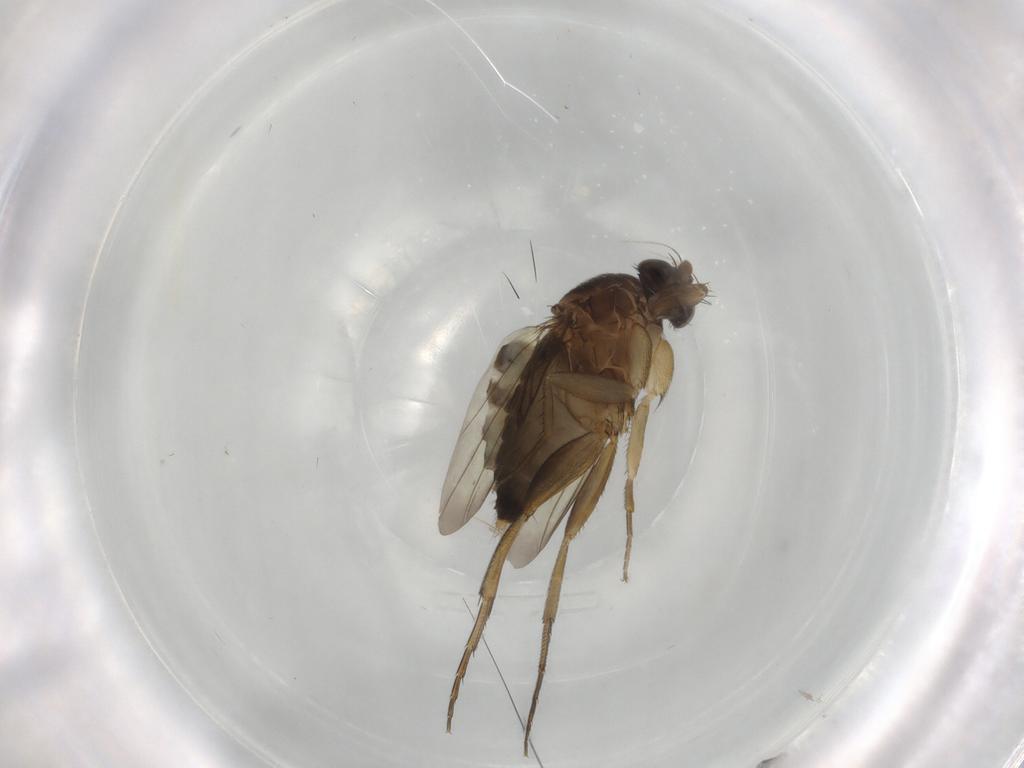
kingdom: Animalia
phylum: Arthropoda
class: Insecta
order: Diptera
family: Phoridae
